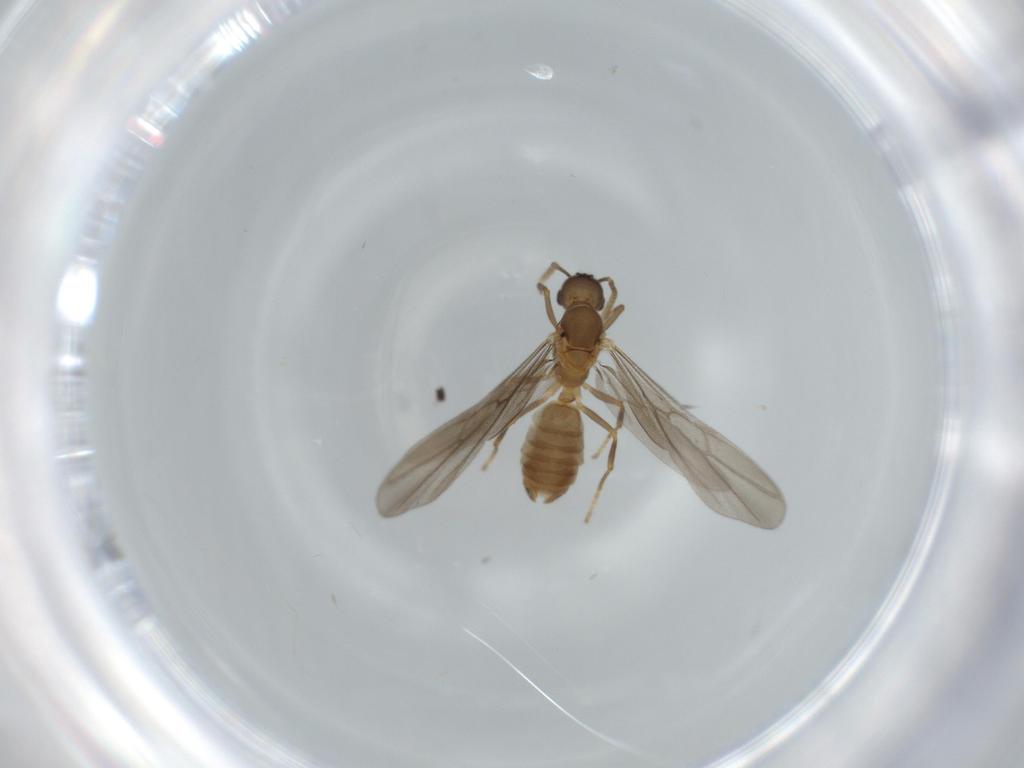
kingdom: Animalia
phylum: Arthropoda
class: Insecta
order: Hymenoptera
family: Formicidae
